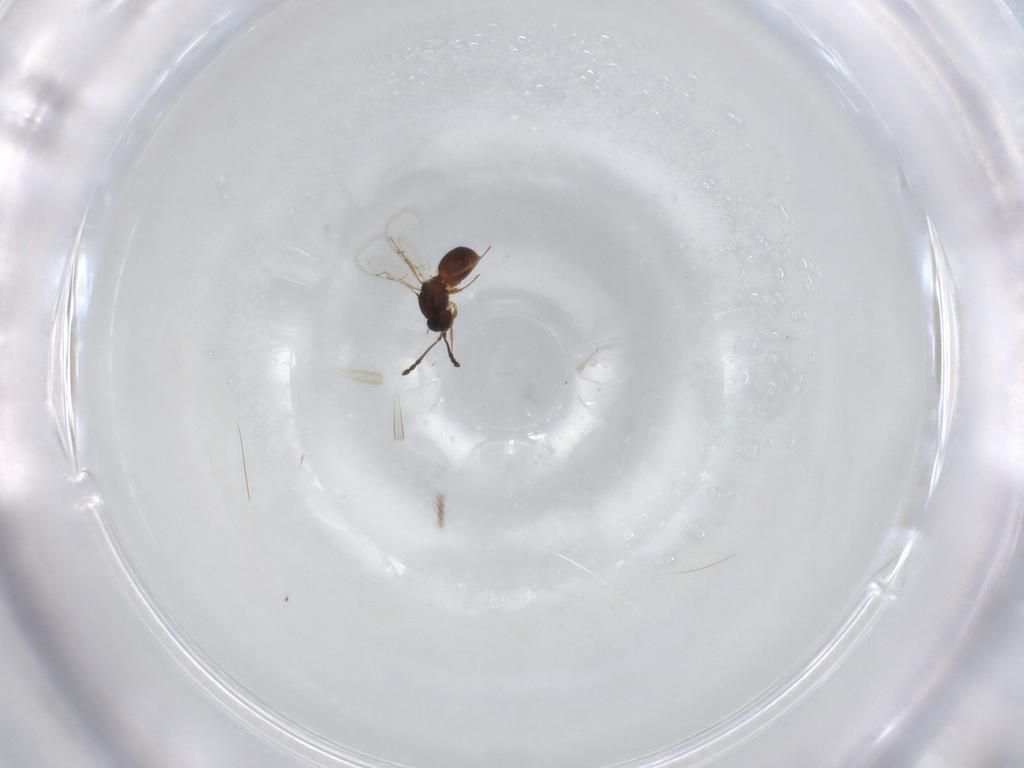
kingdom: Animalia
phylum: Arthropoda
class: Insecta
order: Hymenoptera
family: Figitidae
